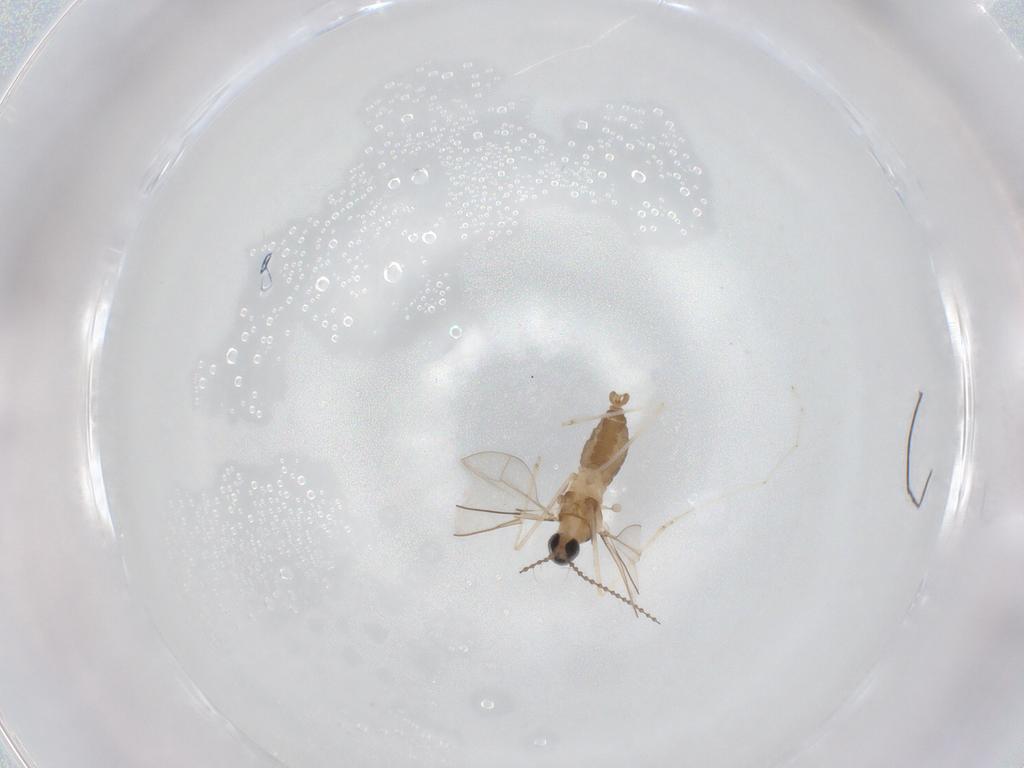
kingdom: Animalia
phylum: Arthropoda
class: Insecta
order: Diptera
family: Cecidomyiidae
